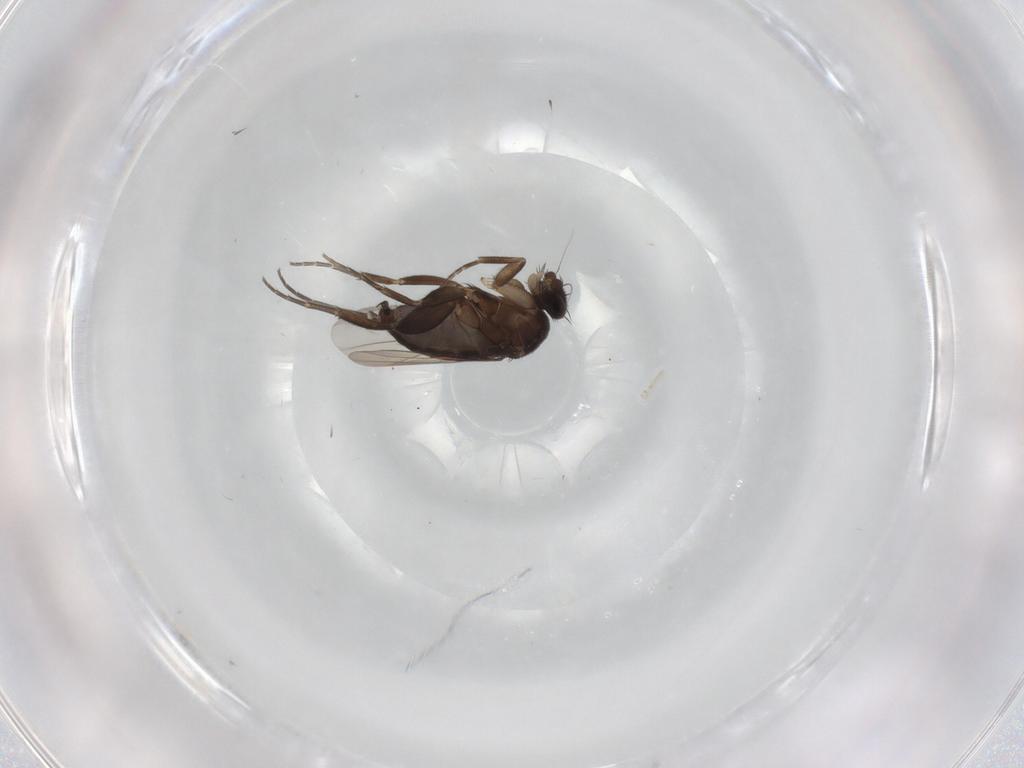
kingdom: Animalia
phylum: Arthropoda
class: Insecta
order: Diptera
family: Phoridae
